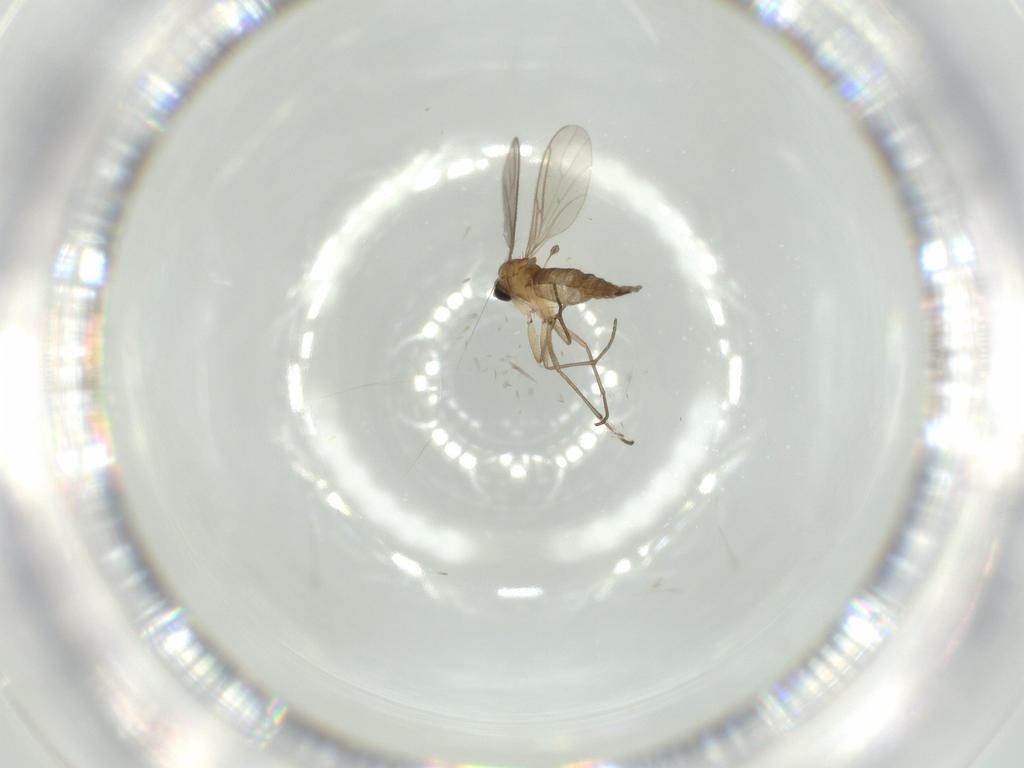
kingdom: Animalia
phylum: Arthropoda
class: Insecta
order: Diptera
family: Sciaridae
